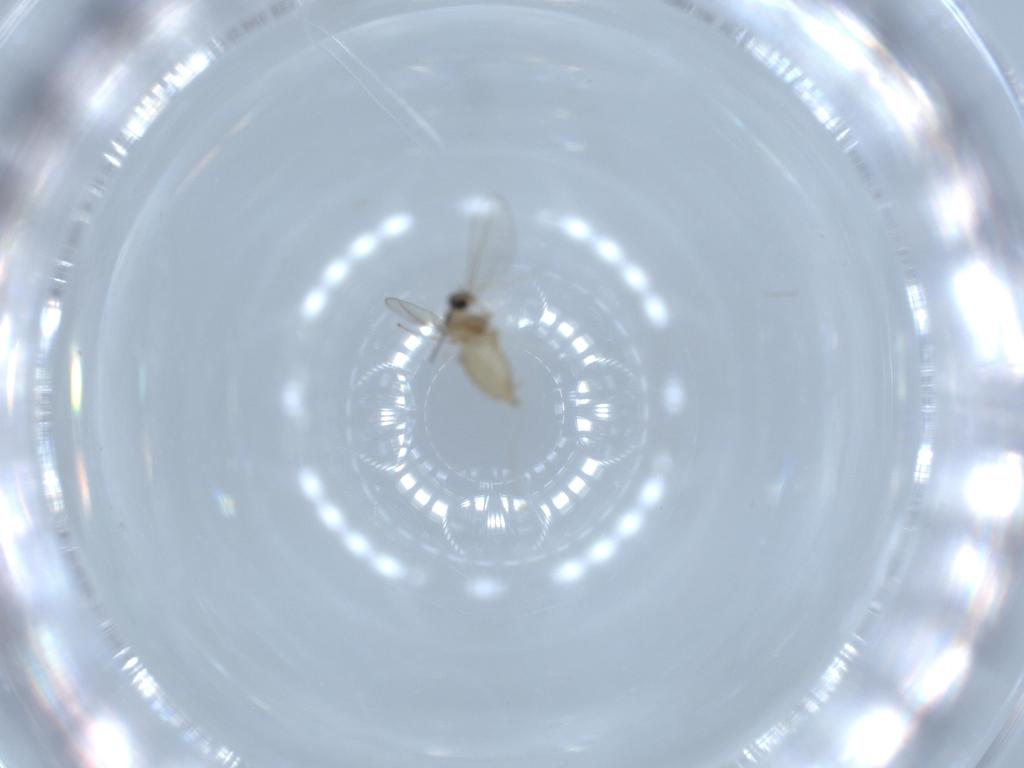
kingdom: Animalia
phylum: Arthropoda
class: Insecta
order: Diptera
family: Cecidomyiidae
